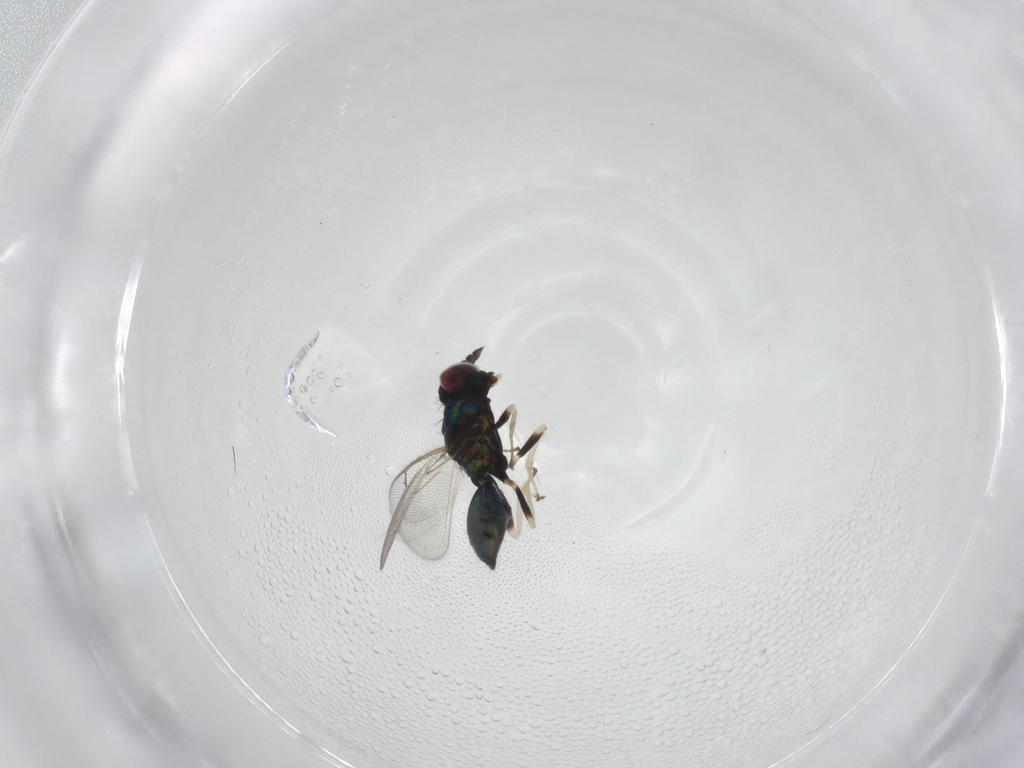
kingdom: Animalia
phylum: Arthropoda
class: Insecta
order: Hymenoptera
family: Eulophidae
